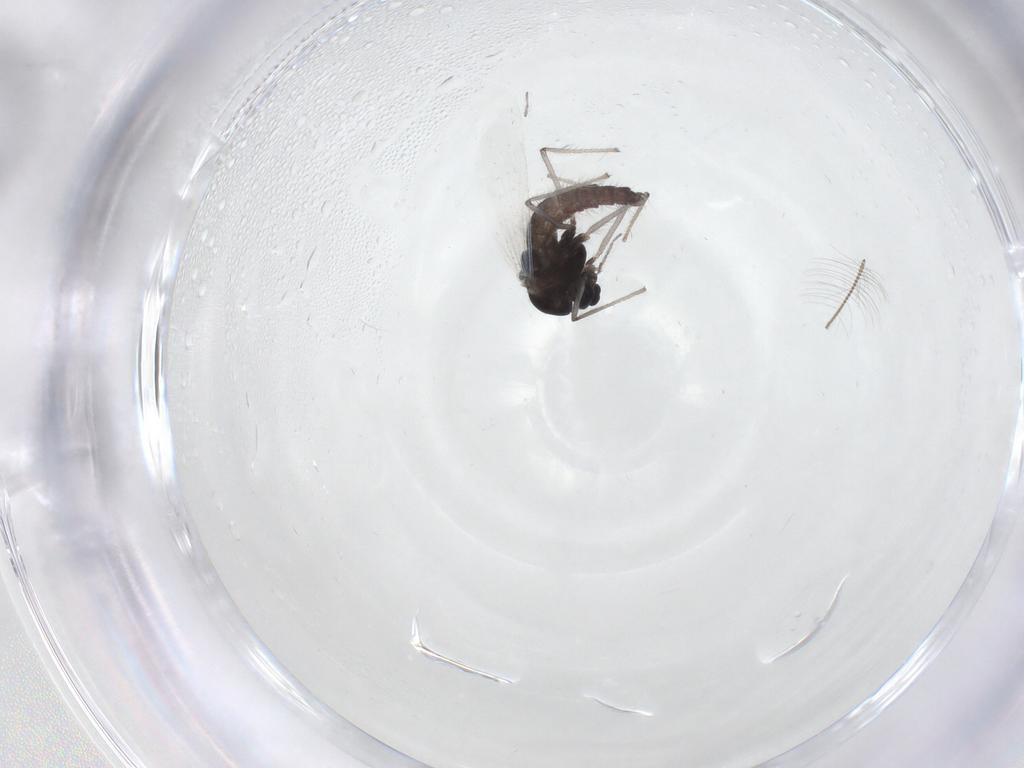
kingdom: Animalia
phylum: Arthropoda
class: Insecta
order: Diptera
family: Chironomidae
